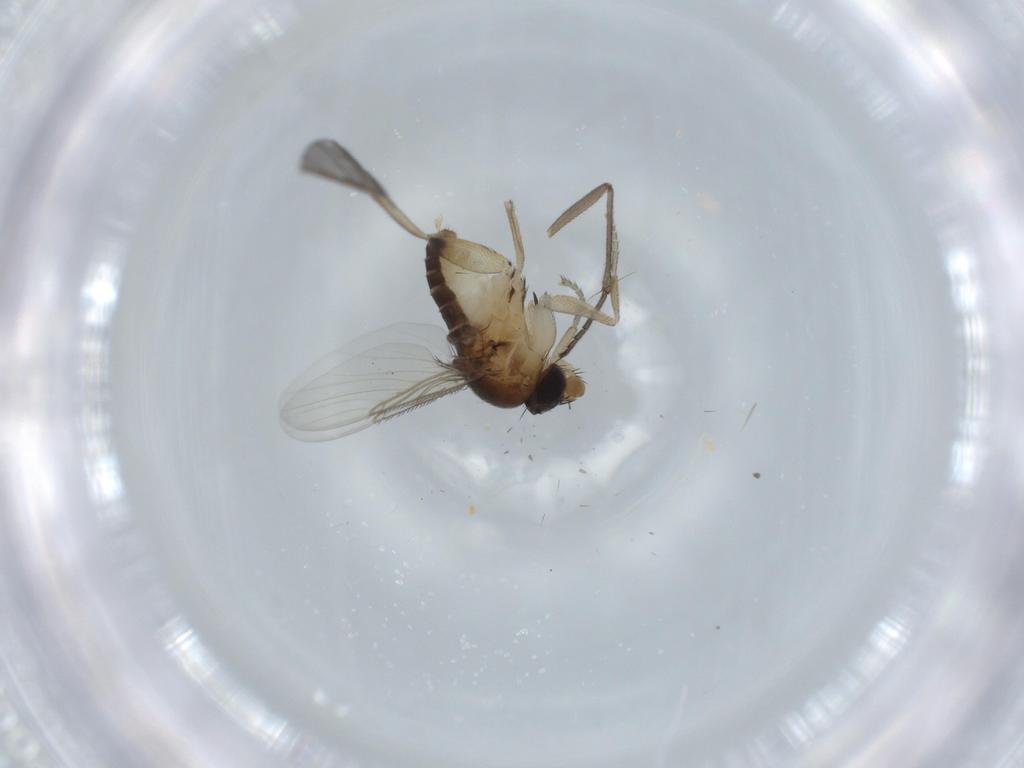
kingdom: Animalia
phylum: Arthropoda
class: Insecta
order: Diptera
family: Phoridae
